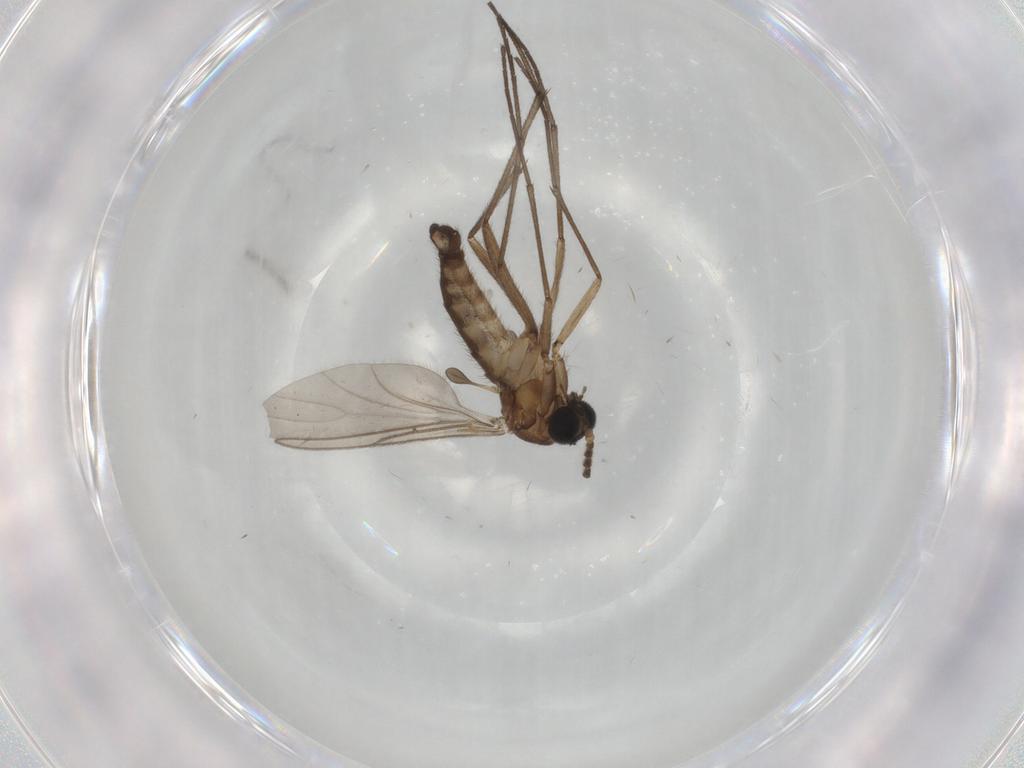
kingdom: Animalia
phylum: Arthropoda
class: Insecta
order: Diptera
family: Sciaridae
